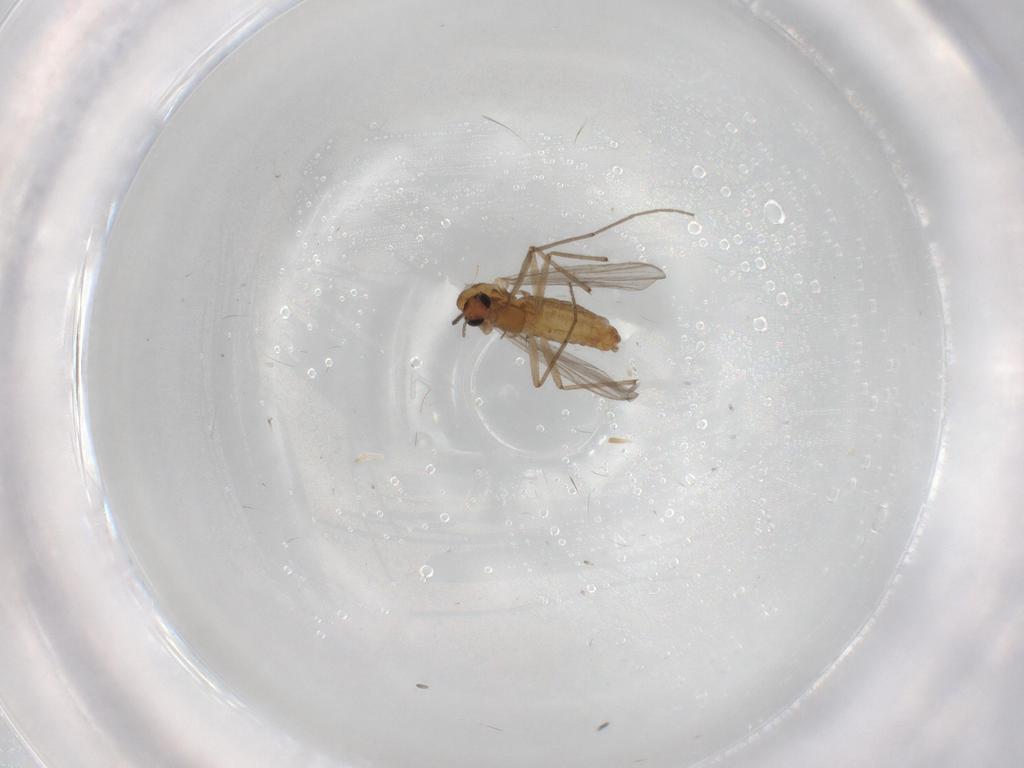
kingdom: Animalia
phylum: Arthropoda
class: Insecta
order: Diptera
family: Chironomidae
